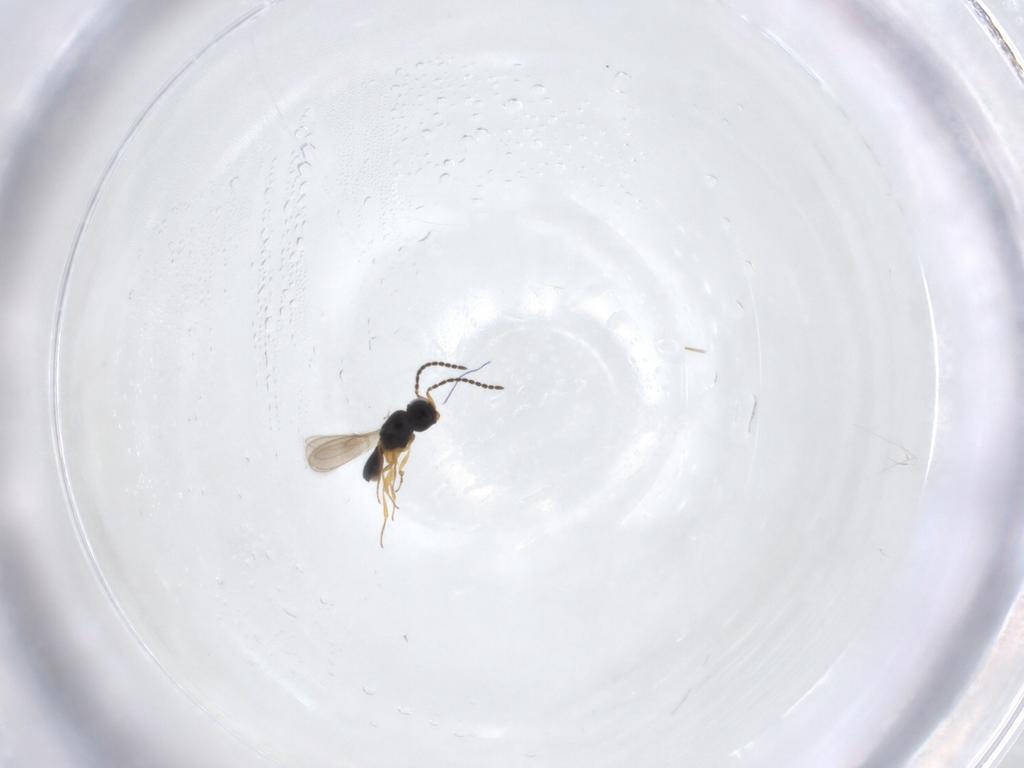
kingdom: Animalia
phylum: Arthropoda
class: Insecta
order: Hymenoptera
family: Scelionidae
